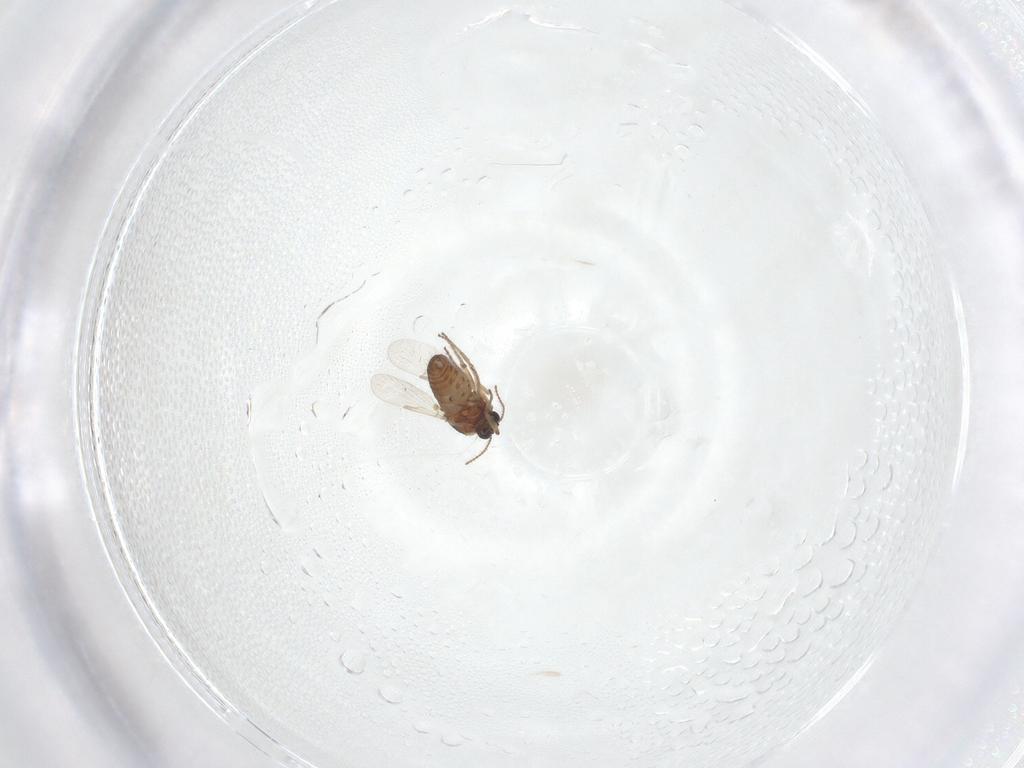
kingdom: Animalia
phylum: Arthropoda
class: Insecta
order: Diptera
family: Ceratopogonidae
